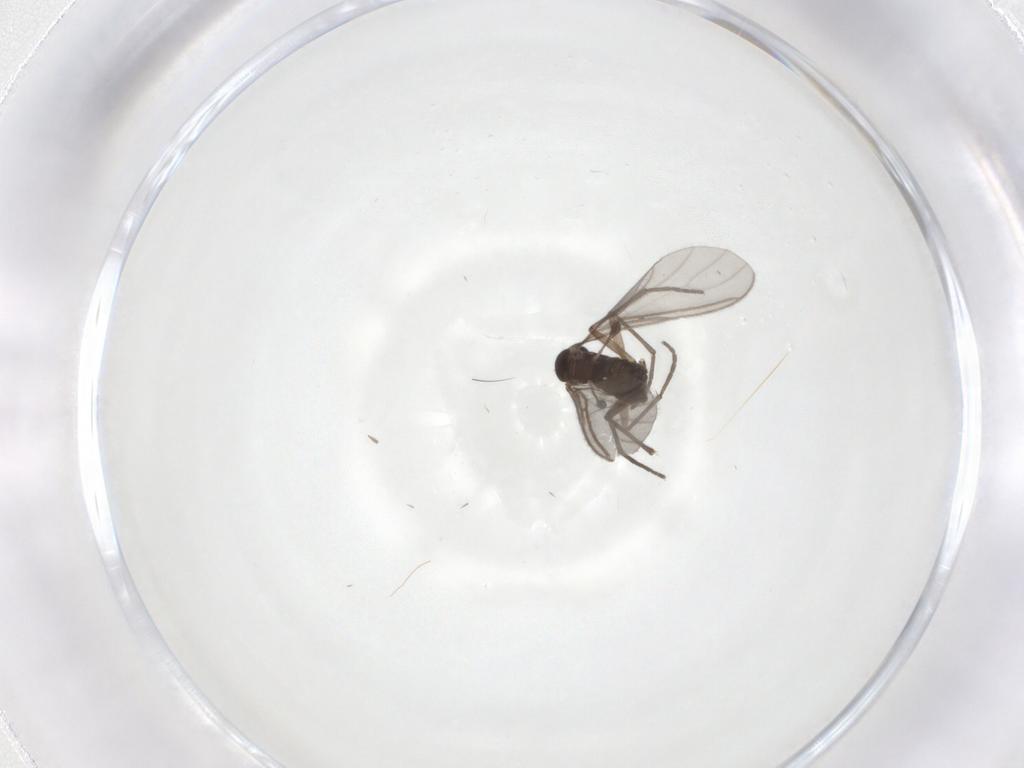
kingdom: Animalia
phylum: Arthropoda
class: Insecta
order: Diptera
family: Sciaridae
